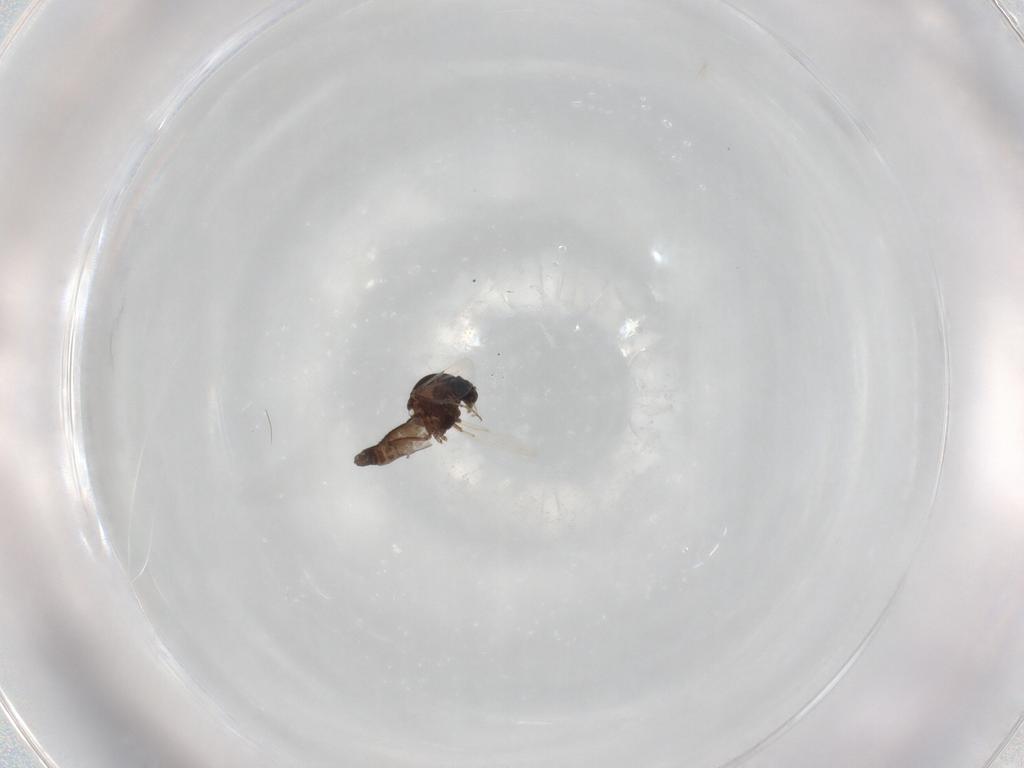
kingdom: Animalia
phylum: Arthropoda
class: Insecta
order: Diptera
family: Ceratopogonidae
